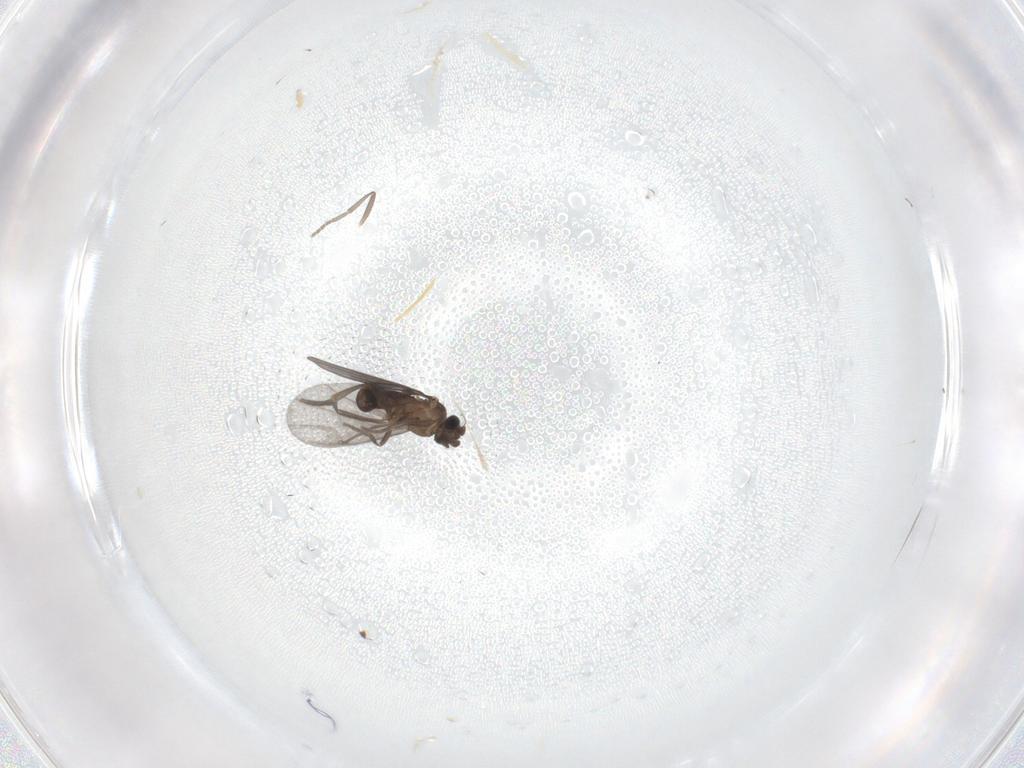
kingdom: Animalia
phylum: Arthropoda
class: Insecta
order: Diptera
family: Phoridae
